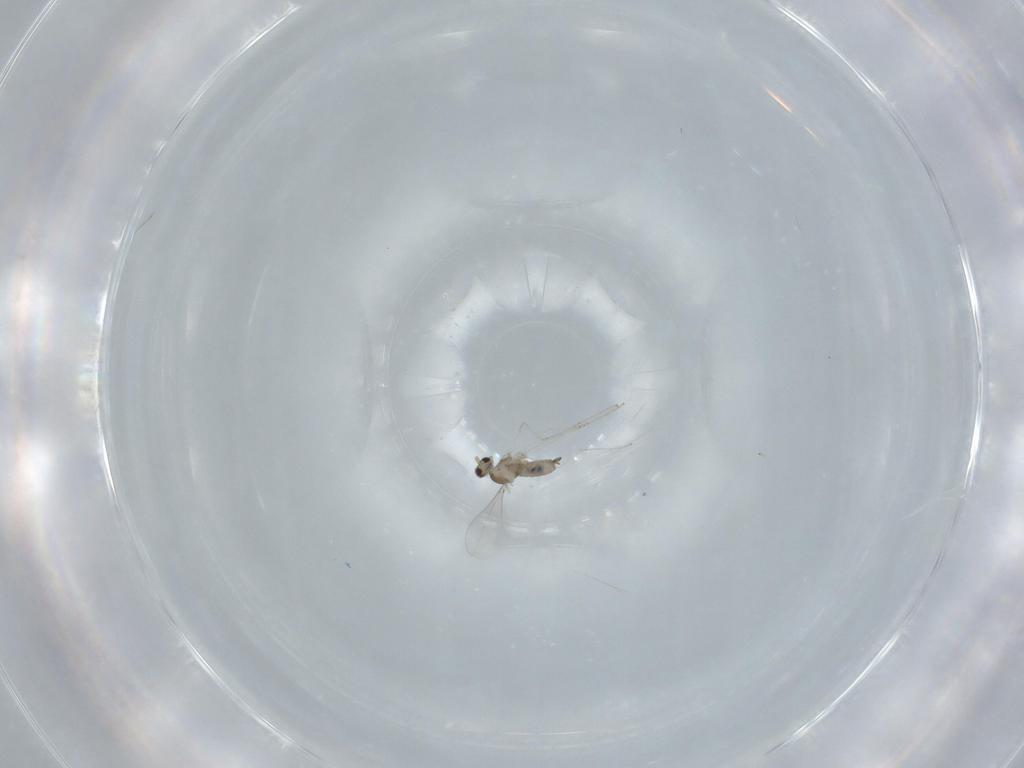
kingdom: Animalia
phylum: Arthropoda
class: Insecta
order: Diptera
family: Cecidomyiidae
